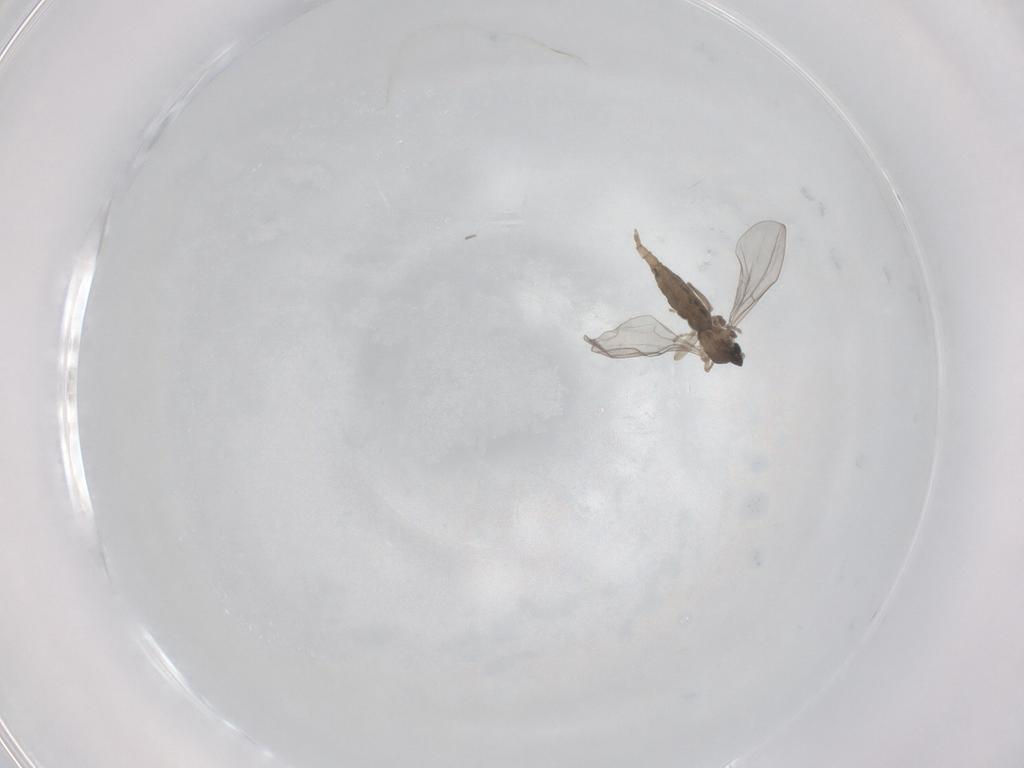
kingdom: Animalia
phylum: Arthropoda
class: Insecta
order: Diptera
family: Cecidomyiidae
